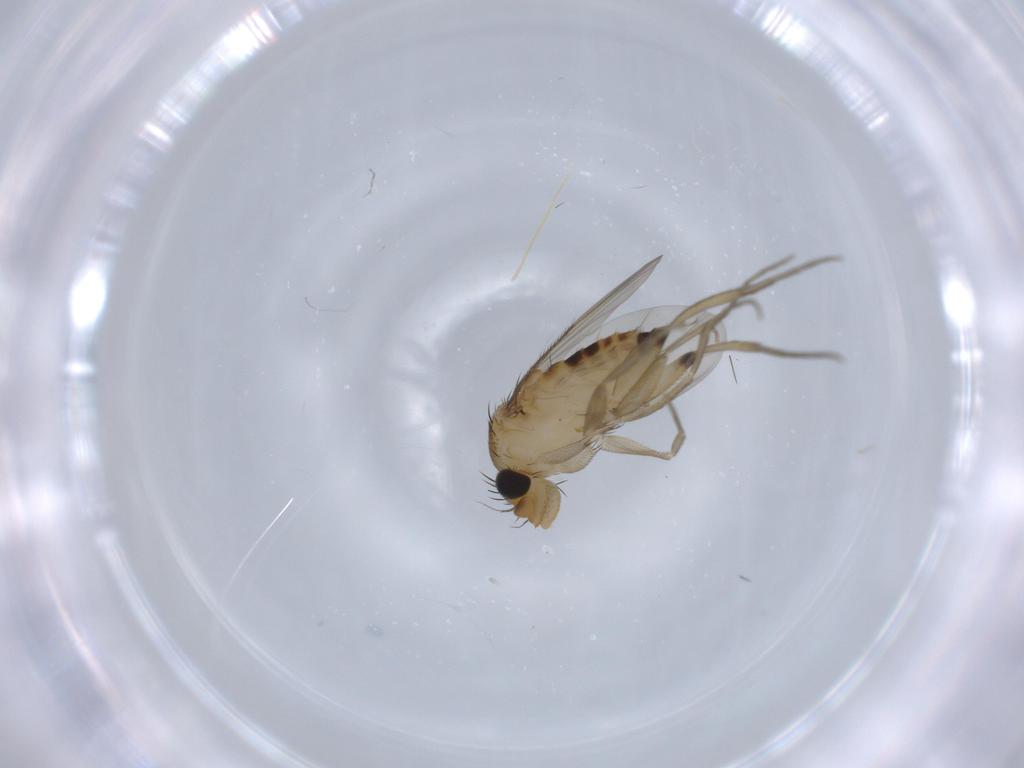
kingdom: Animalia
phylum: Arthropoda
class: Insecta
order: Diptera
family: Phoridae
